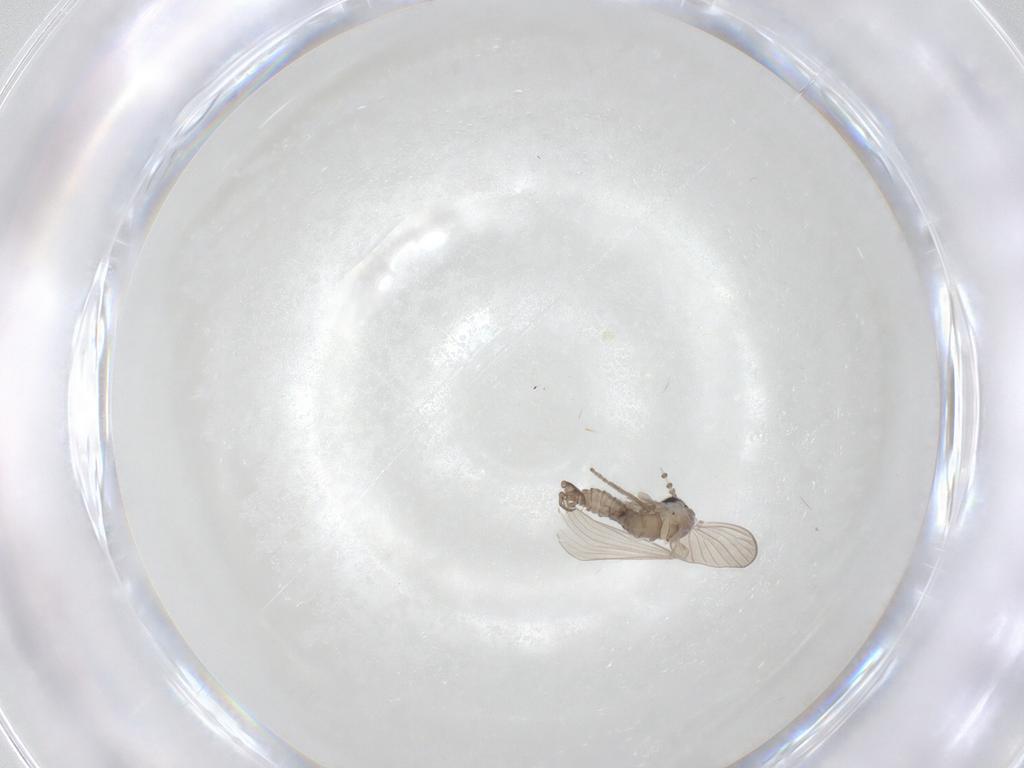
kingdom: Animalia
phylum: Arthropoda
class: Insecta
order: Diptera
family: Psychodidae
